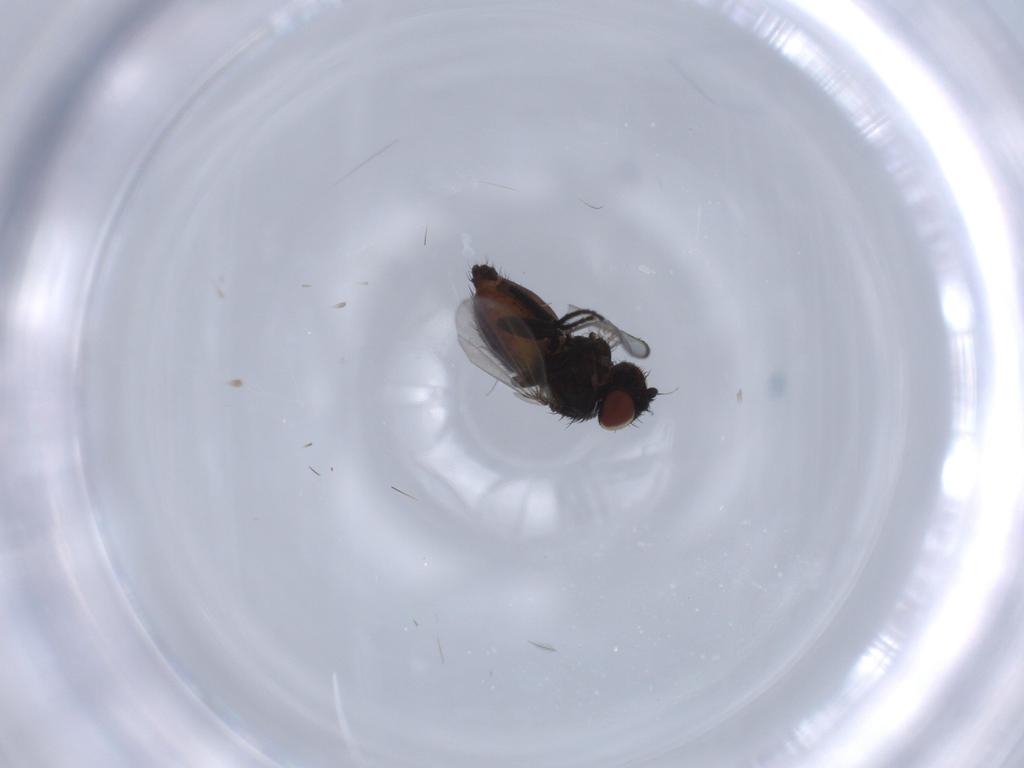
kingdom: Animalia
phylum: Arthropoda
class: Insecta
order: Diptera
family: Milichiidae
